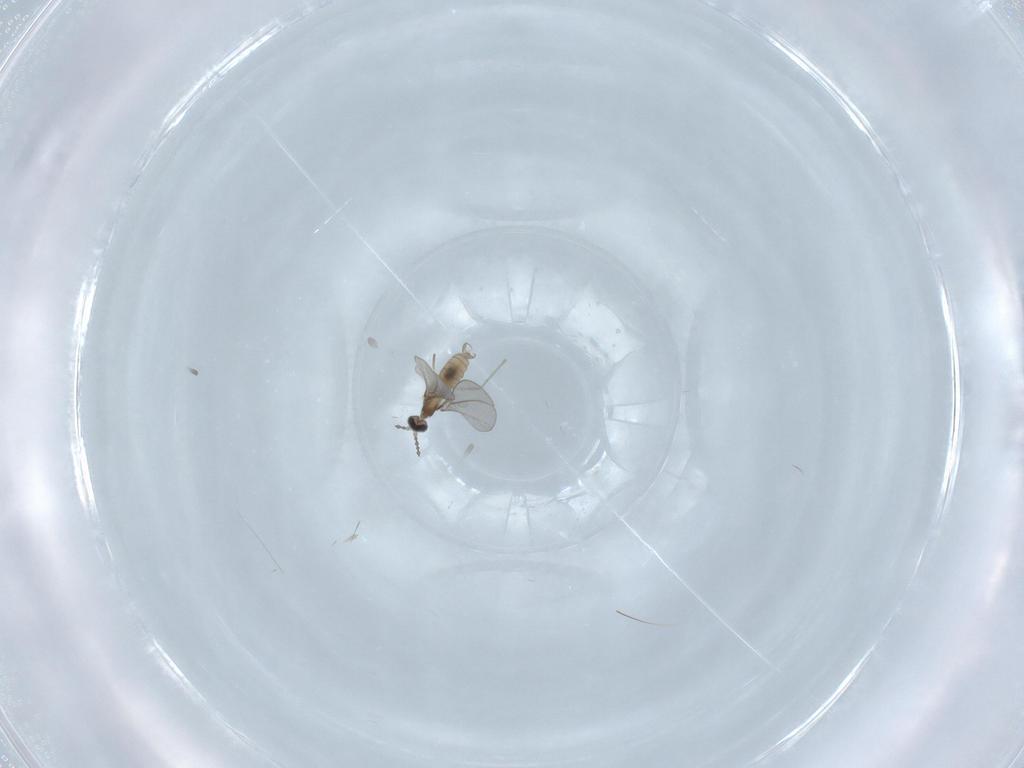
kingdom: Animalia
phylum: Arthropoda
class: Insecta
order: Diptera
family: Cecidomyiidae
